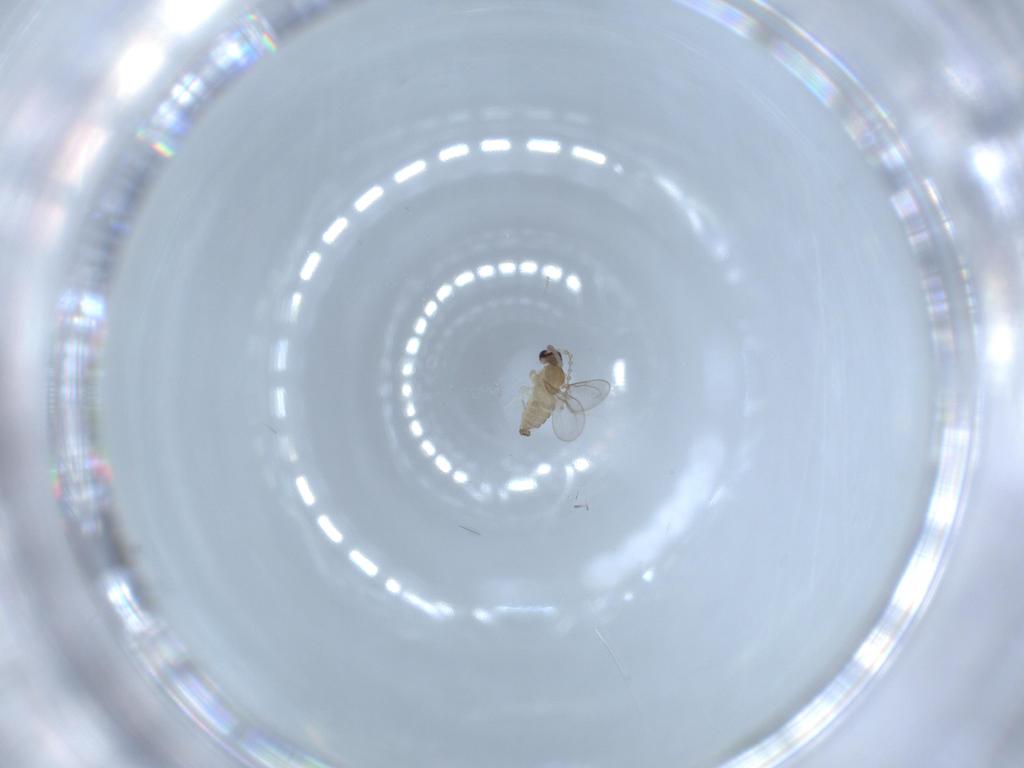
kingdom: Animalia
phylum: Arthropoda
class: Insecta
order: Diptera
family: Cecidomyiidae
